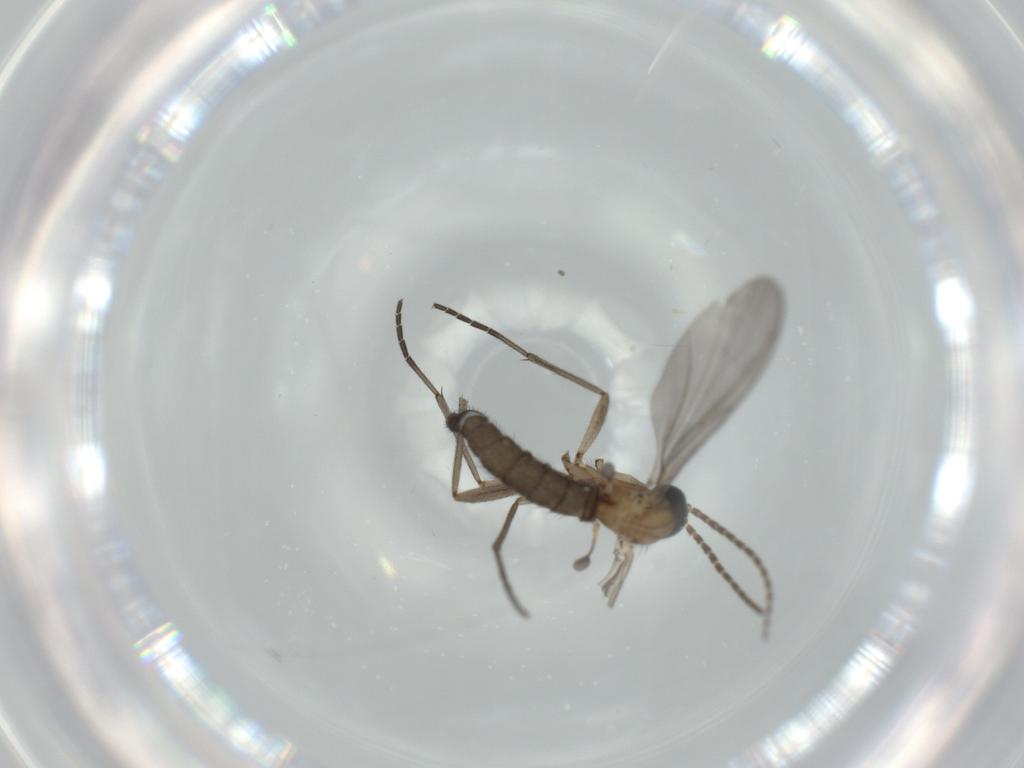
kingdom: Animalia
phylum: Arthropoda
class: Insecta
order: Diptera
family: Sciaridae
